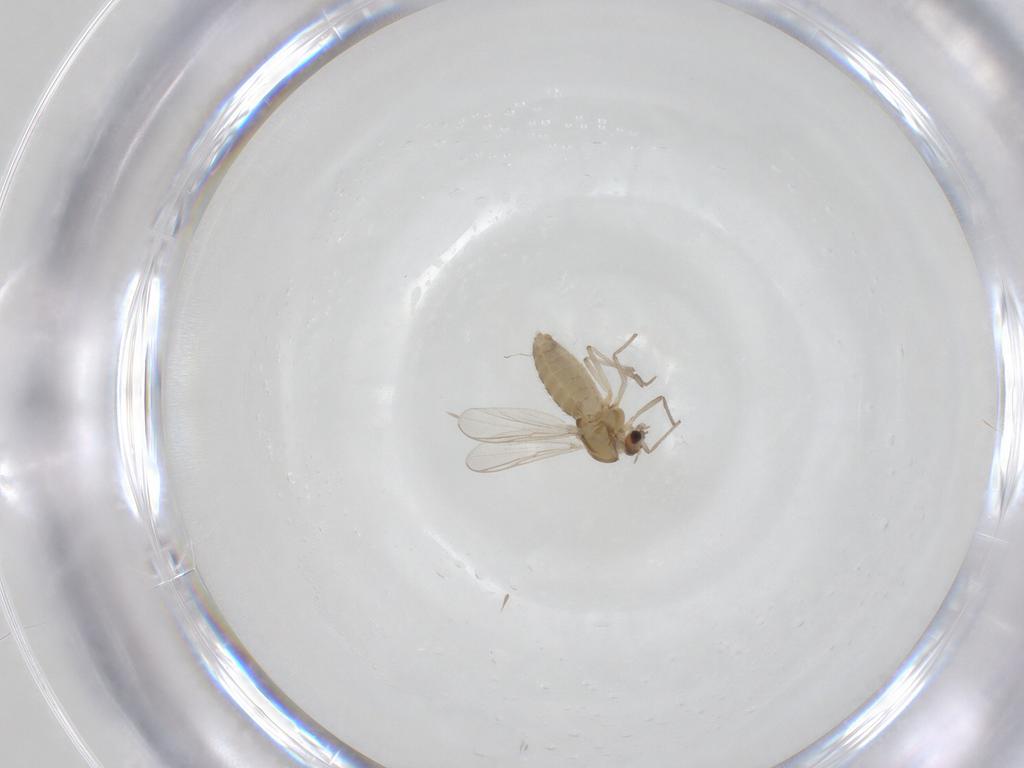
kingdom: Animalia
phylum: Arthropoda
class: Insecta
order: Diptera
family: Chironomidae
